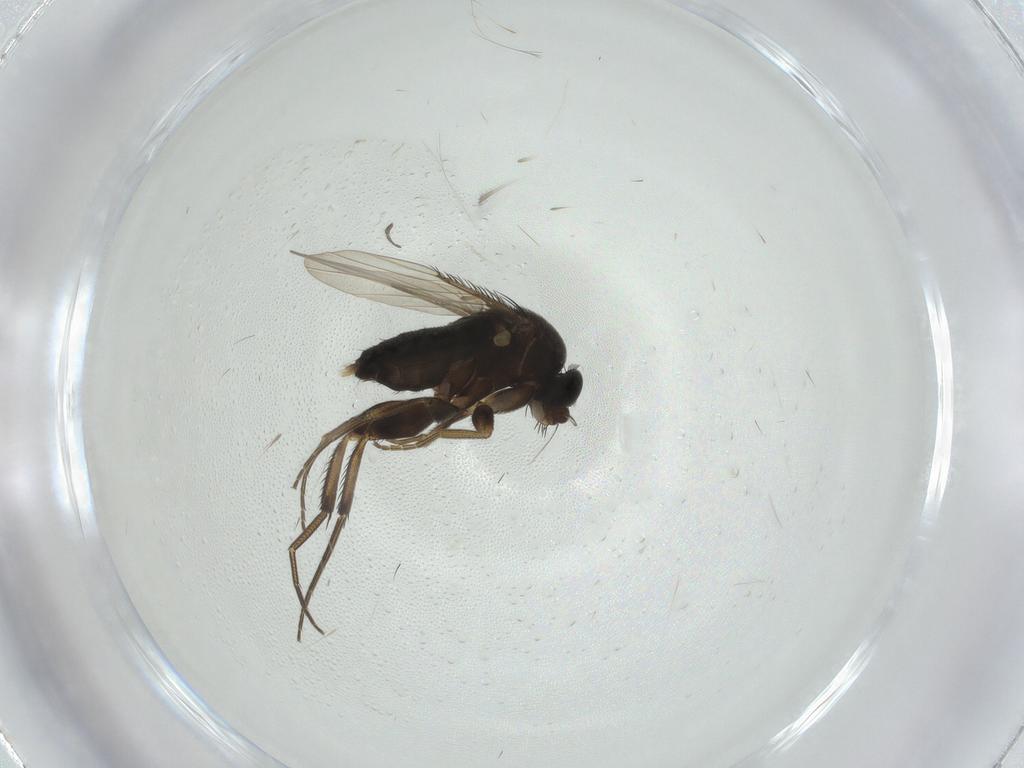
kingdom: Animalia
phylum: Arthropoda
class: Insecta
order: Diptera
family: Phoridae
